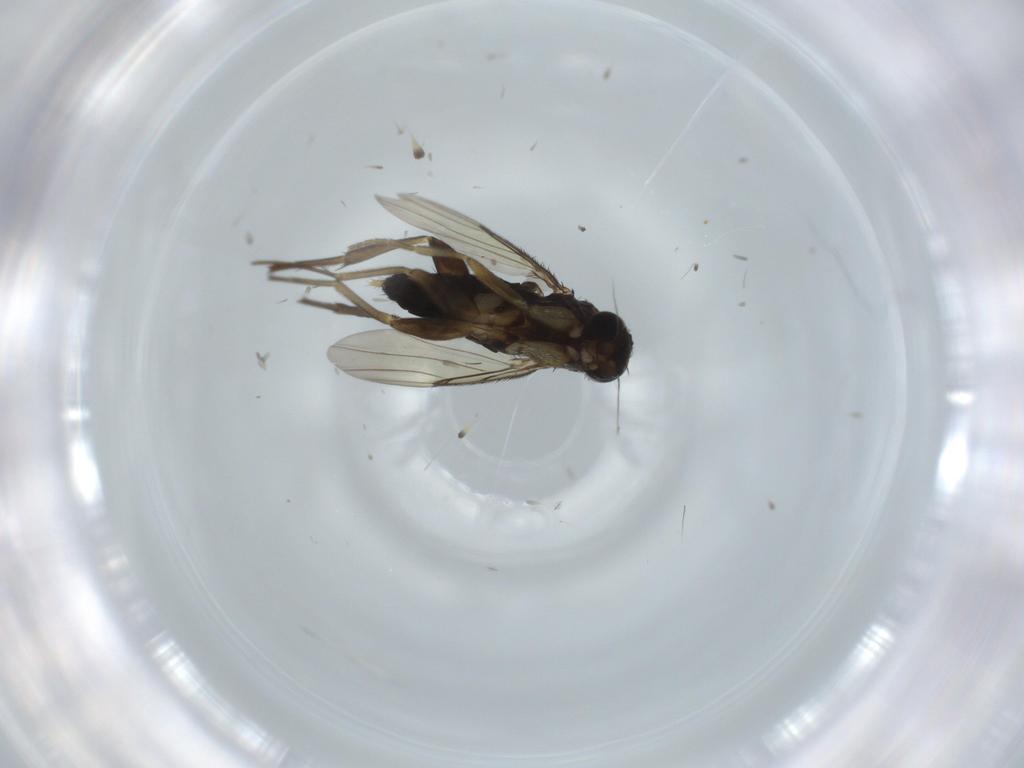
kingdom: Animalia
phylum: Arthropoda
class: Insecta
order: Diptera
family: Phoridae
